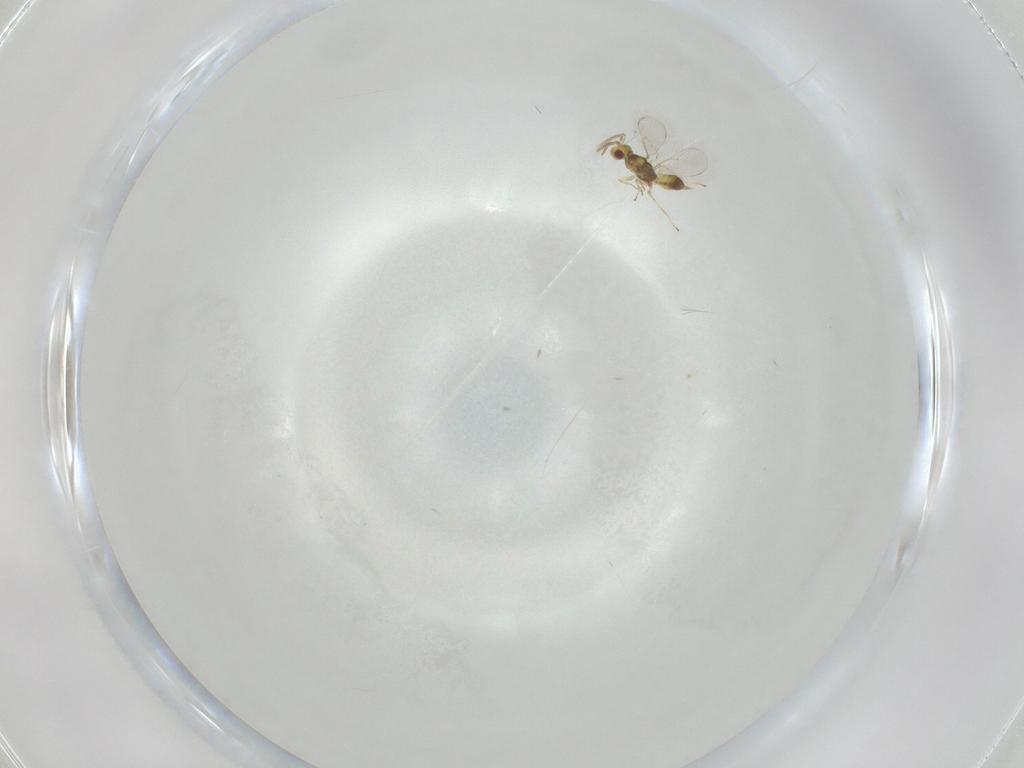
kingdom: Animalia
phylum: Arthropoda
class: Insecta
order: Hymenoptera
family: Eulophidae
